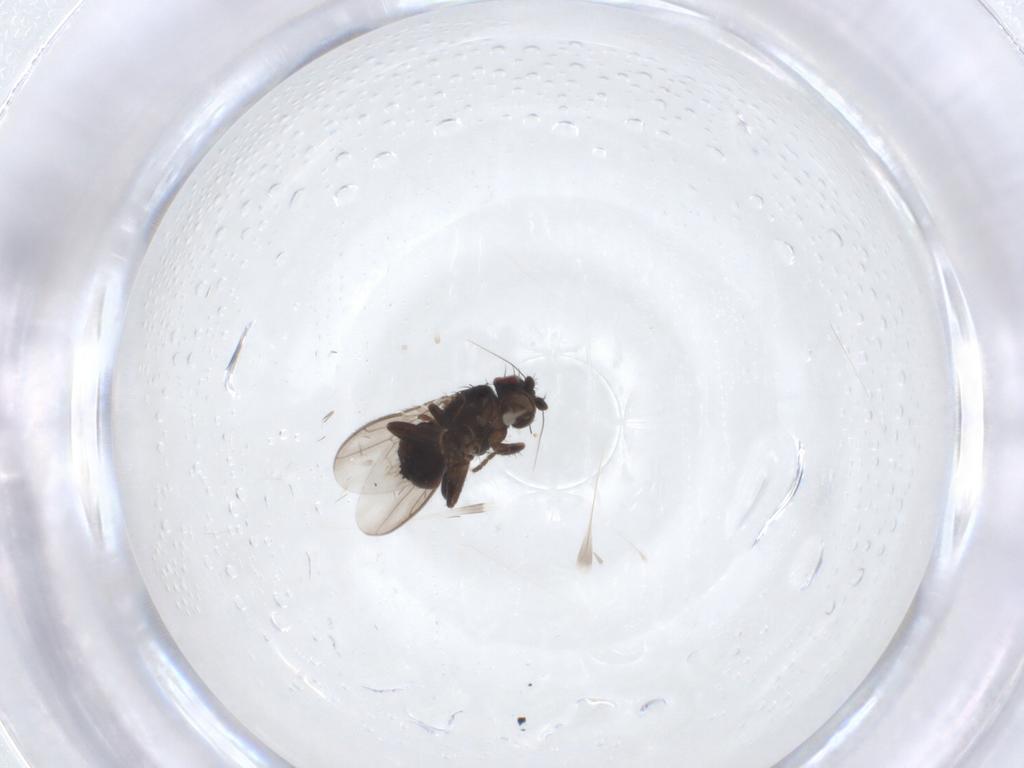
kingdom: Animalia
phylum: Arthropoda
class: Insecta
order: Diptera
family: Sphaeroceridae
